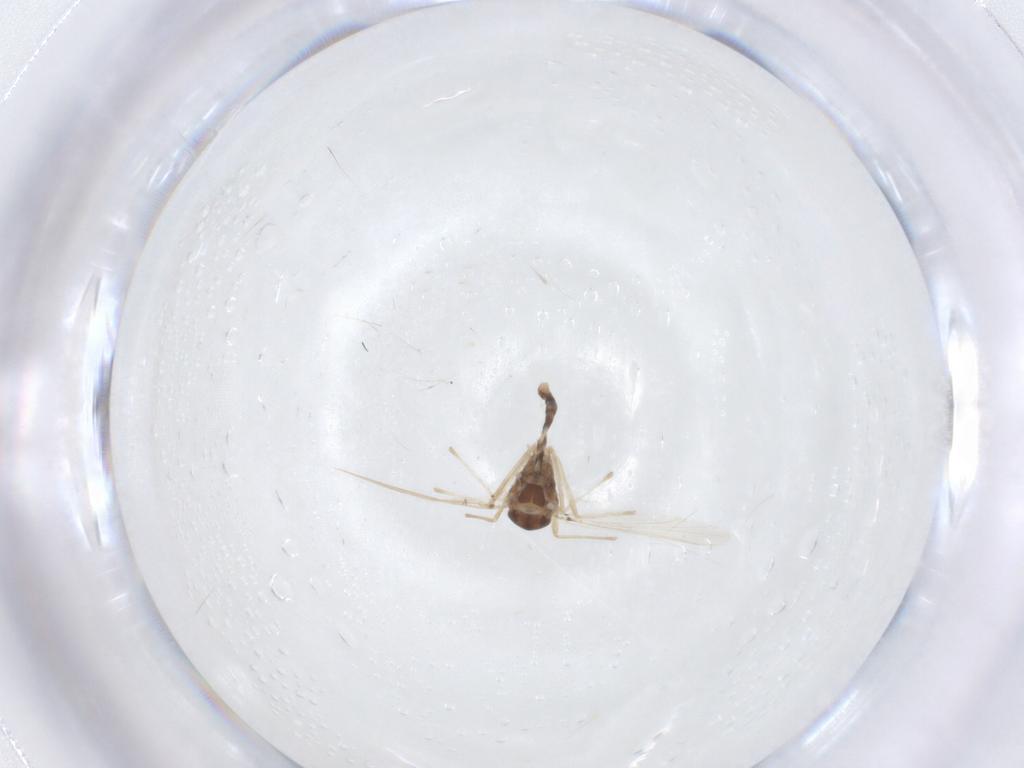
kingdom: Animalia
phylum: Arthropoda
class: Insecta
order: Diptera
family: Chironomidae
